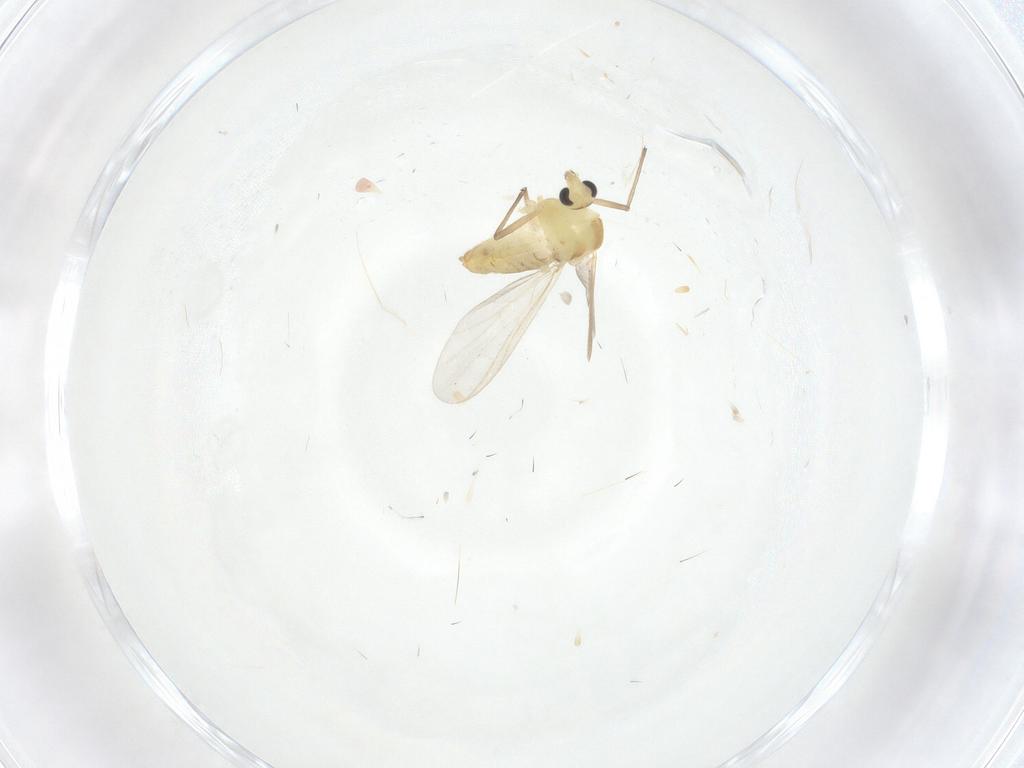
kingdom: Animalia
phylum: Arthropoda
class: Insecta
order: Diptera
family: Chironomidae
